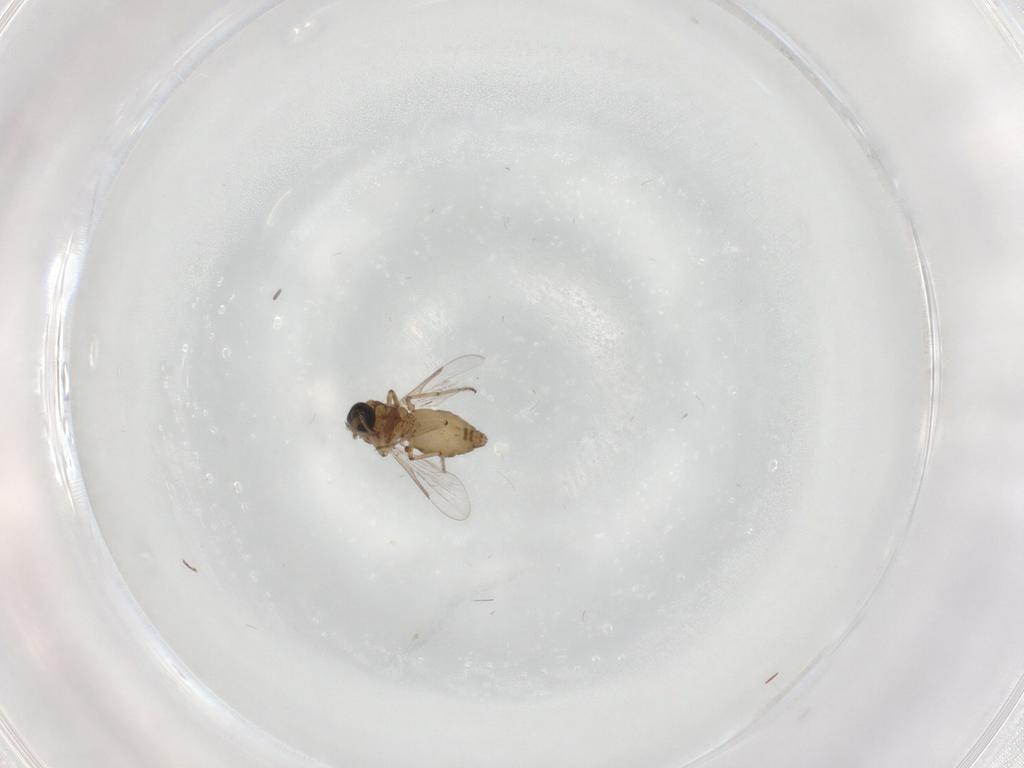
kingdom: Animalia
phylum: Arthropoda
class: Insecta
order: Diptera
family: Ceratopogonidae
